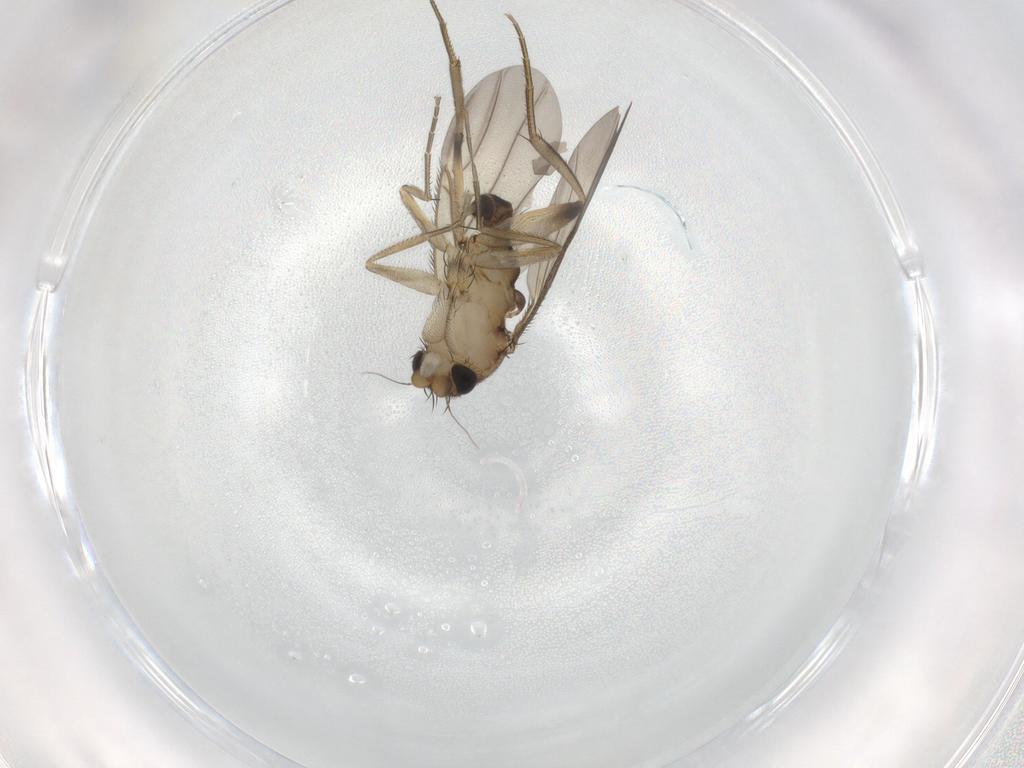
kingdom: Animalia
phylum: Arthropoda
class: Insecta
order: Diptera
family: Phoridae
